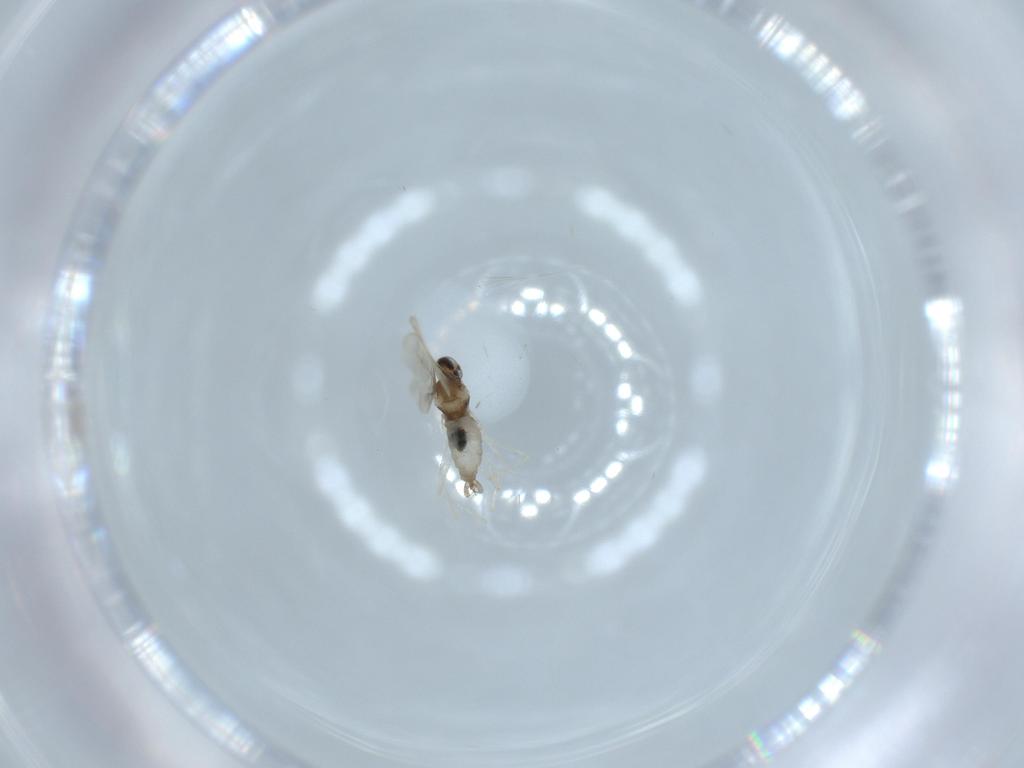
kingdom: Animalia
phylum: Arthropoda
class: Insecta
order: Diptera
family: Cecidomyiidae
